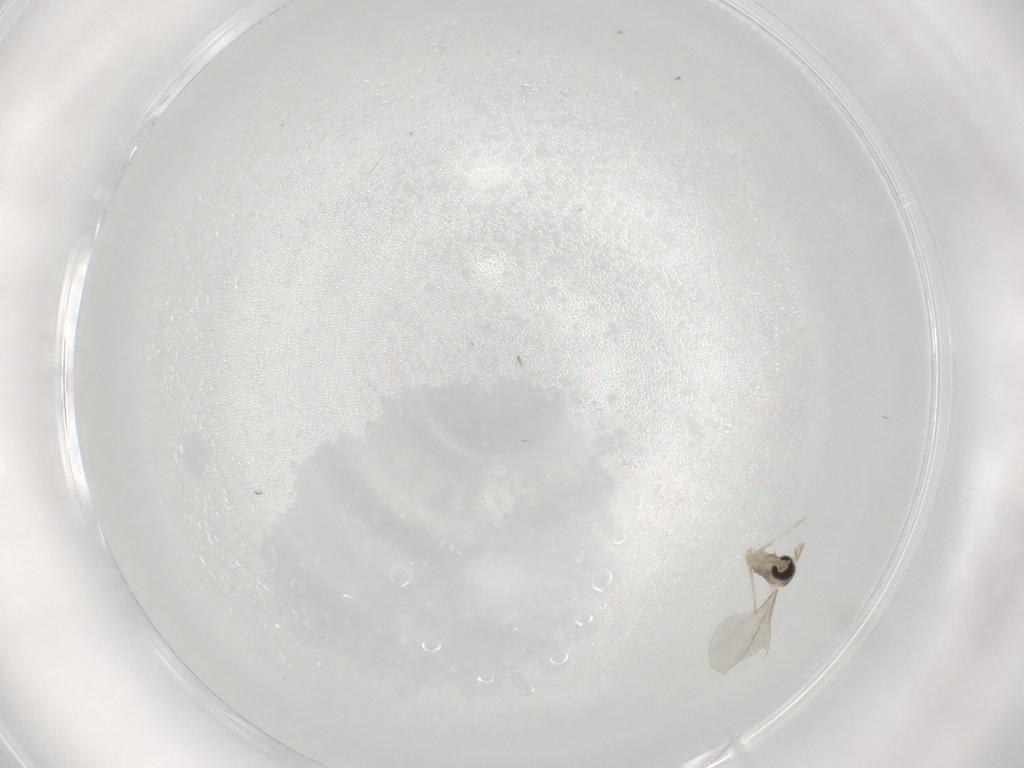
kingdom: Animalia
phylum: Arthropoda
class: Insecta
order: Diptera
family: Cecidomyiidae
